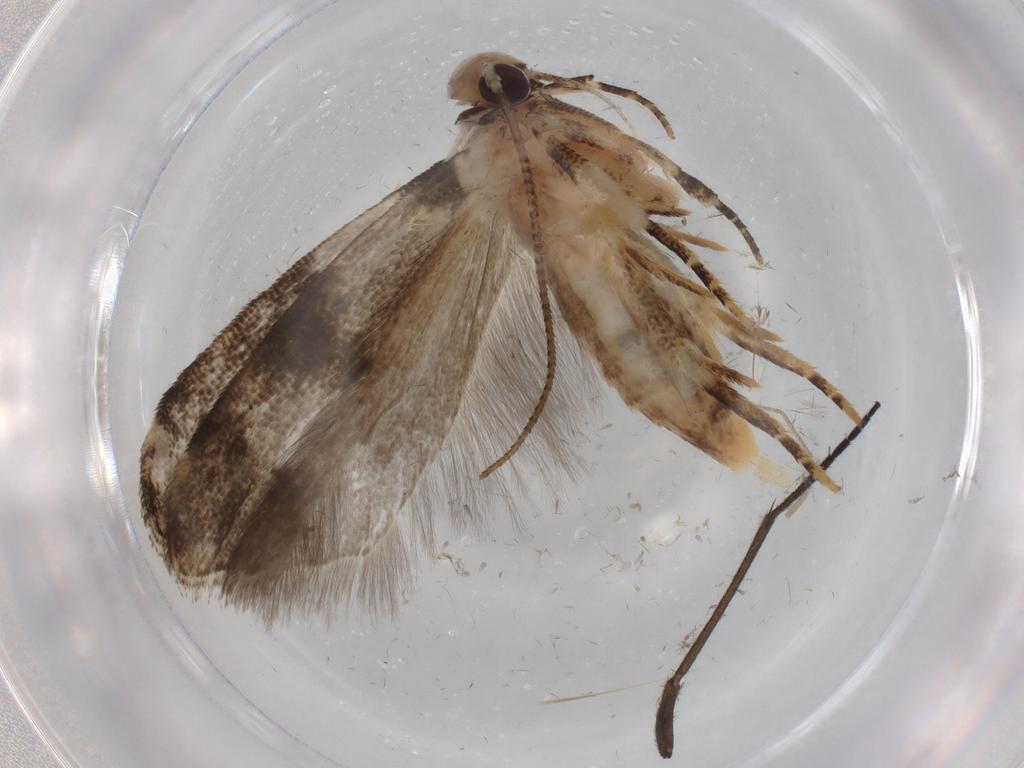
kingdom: Animalia
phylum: Arthropoda
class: Insecta
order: Lepidoptera
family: Gelechiidae
